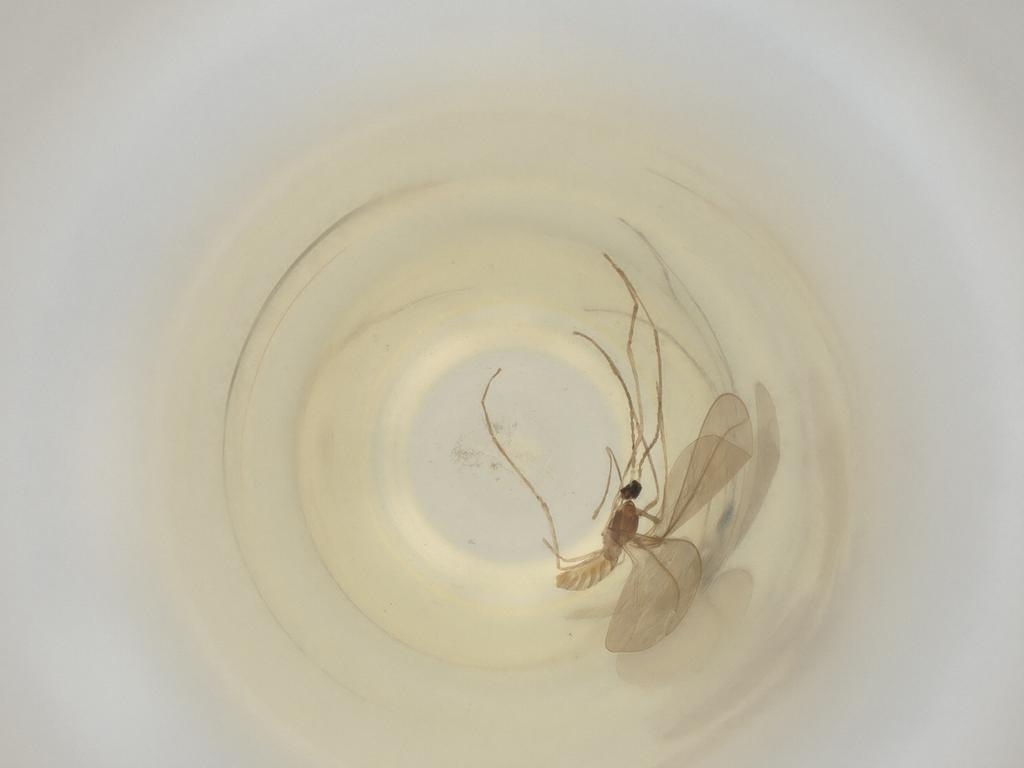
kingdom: Animalia
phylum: Arthropoda
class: Insecta
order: Diptera
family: Cecidomyiidae
